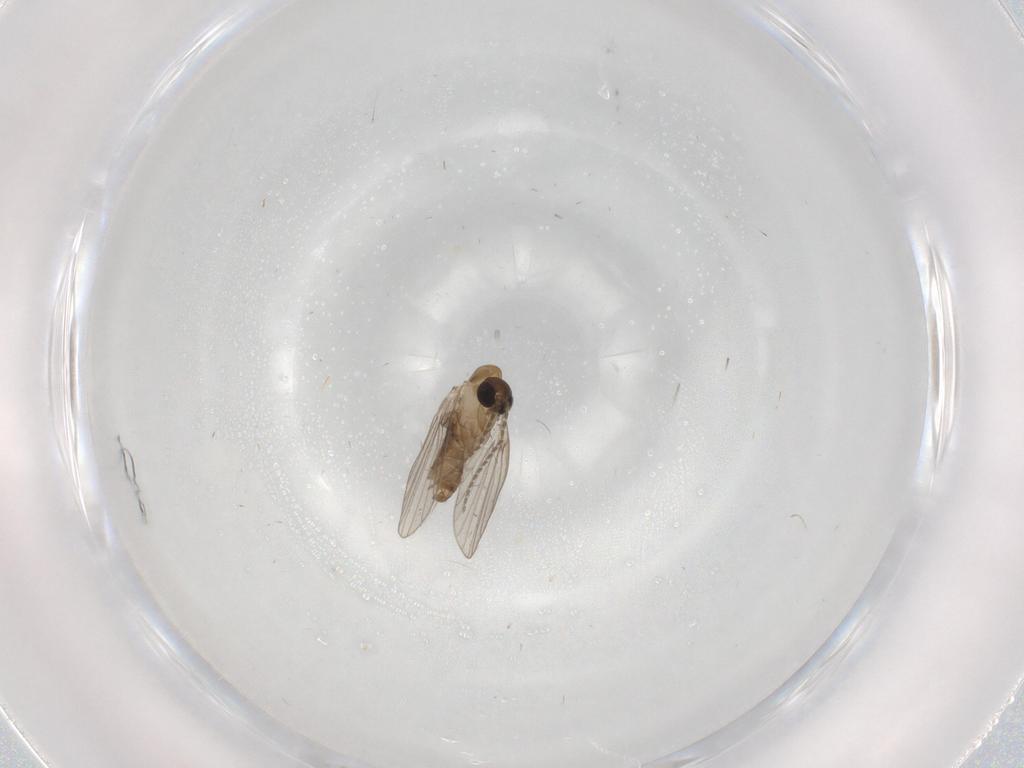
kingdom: Animalia
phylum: Arthropoda
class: Insecta
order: Diptera
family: Psychodidae
